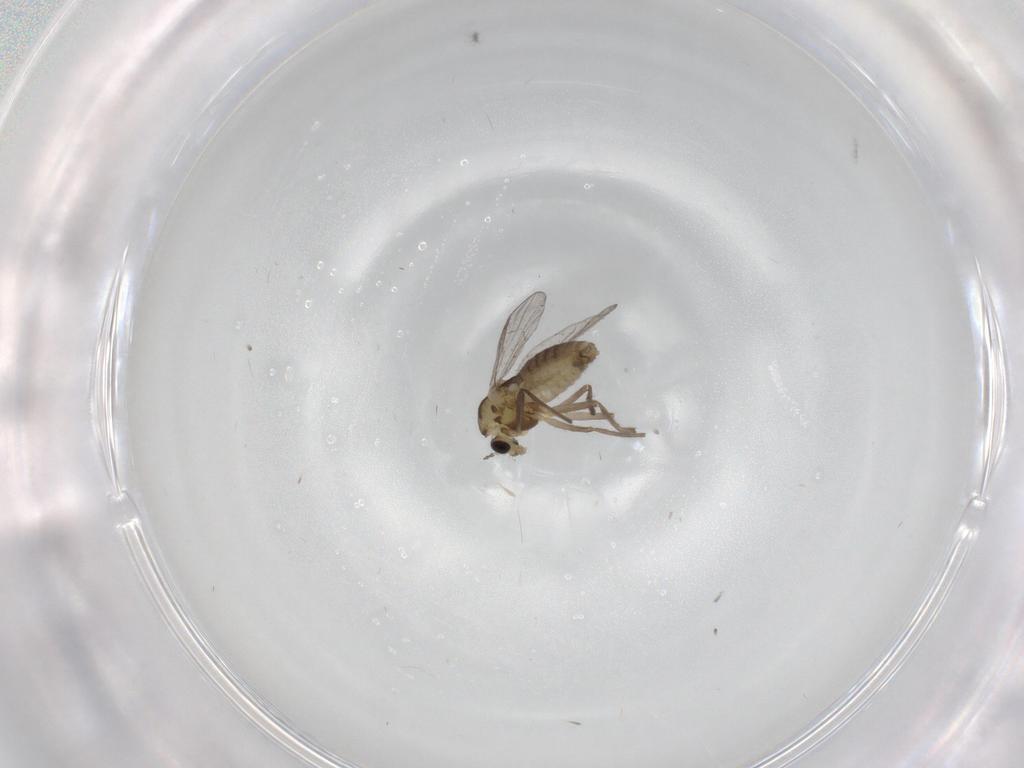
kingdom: Animalia
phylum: Arthropoda
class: Insecta
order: Diptera
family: Chironomidae
